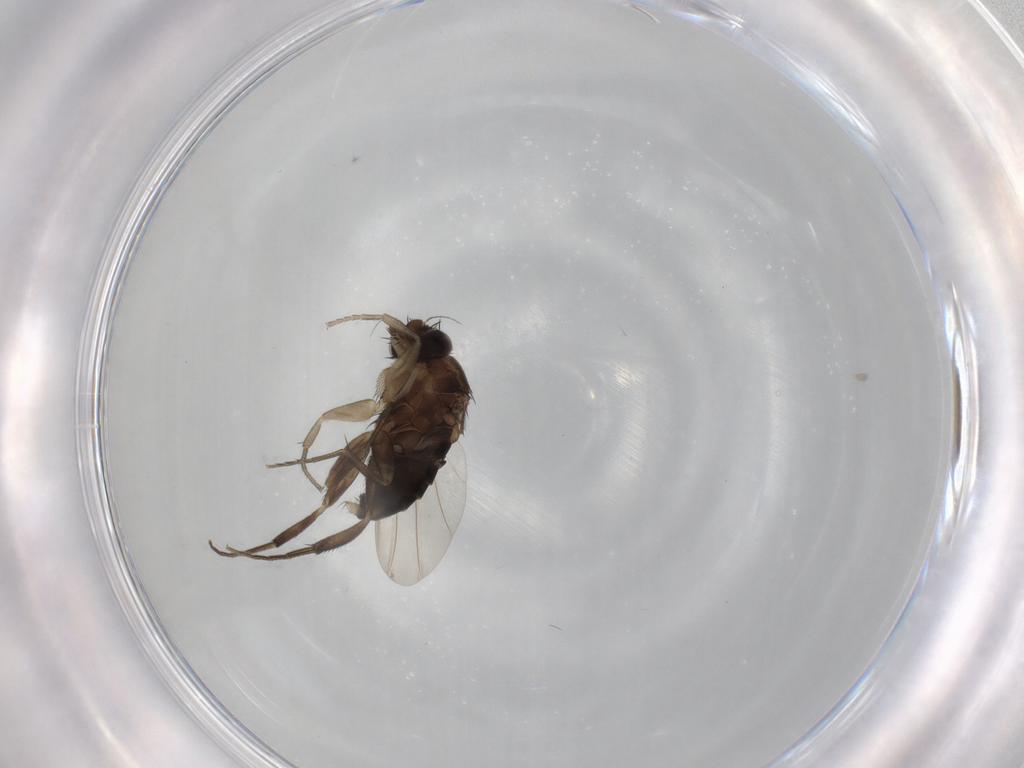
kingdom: Animalia
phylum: Arthropoda
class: Insecta
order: Diptera
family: Phoridae
